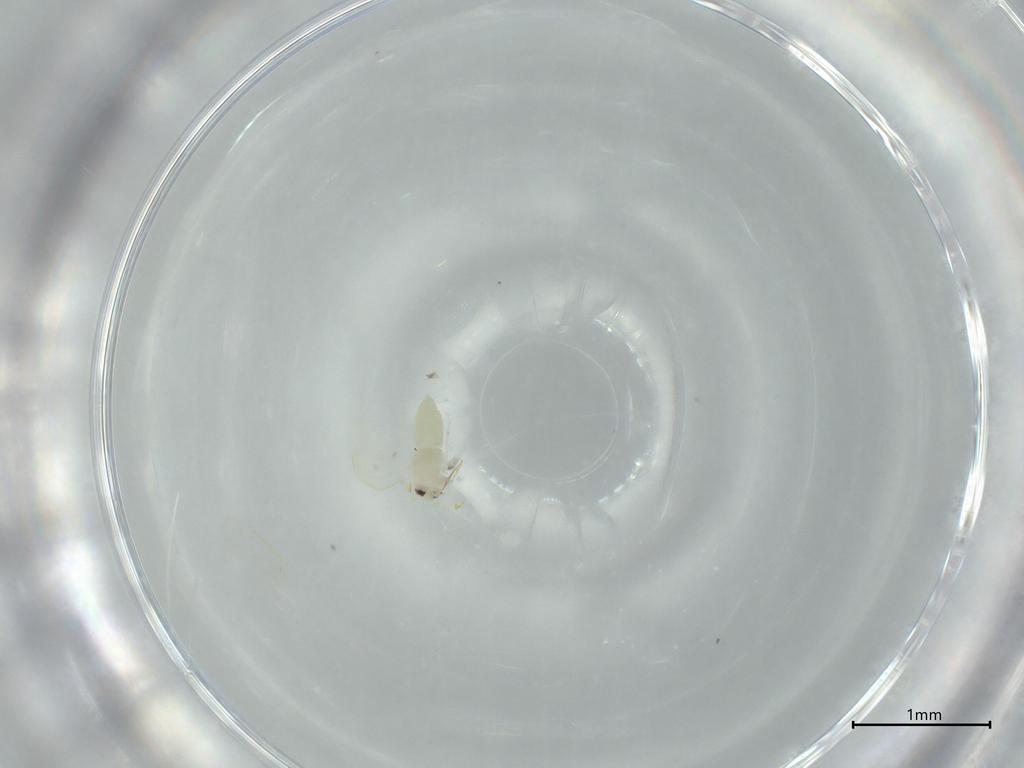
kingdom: Animalia
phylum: Arthropoda
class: Insecta
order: Hemiptera
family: Aleyrodidae
